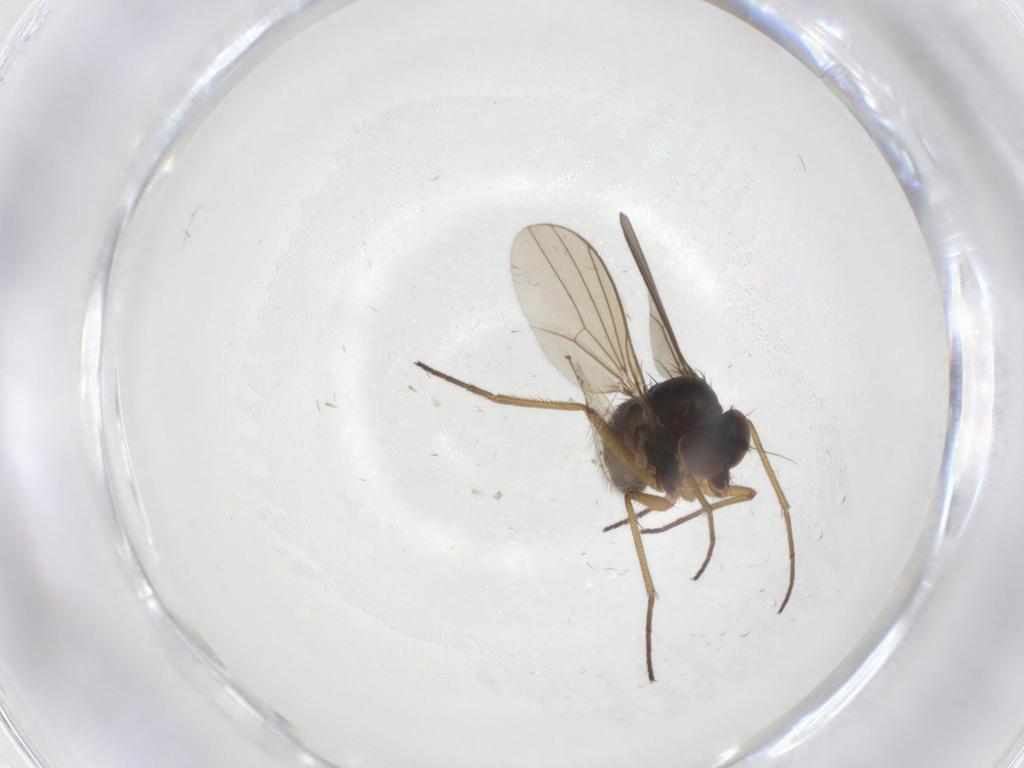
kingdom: Animalia
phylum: Arthropoda
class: Insecta
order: Diptera
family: Dolichopodidae
